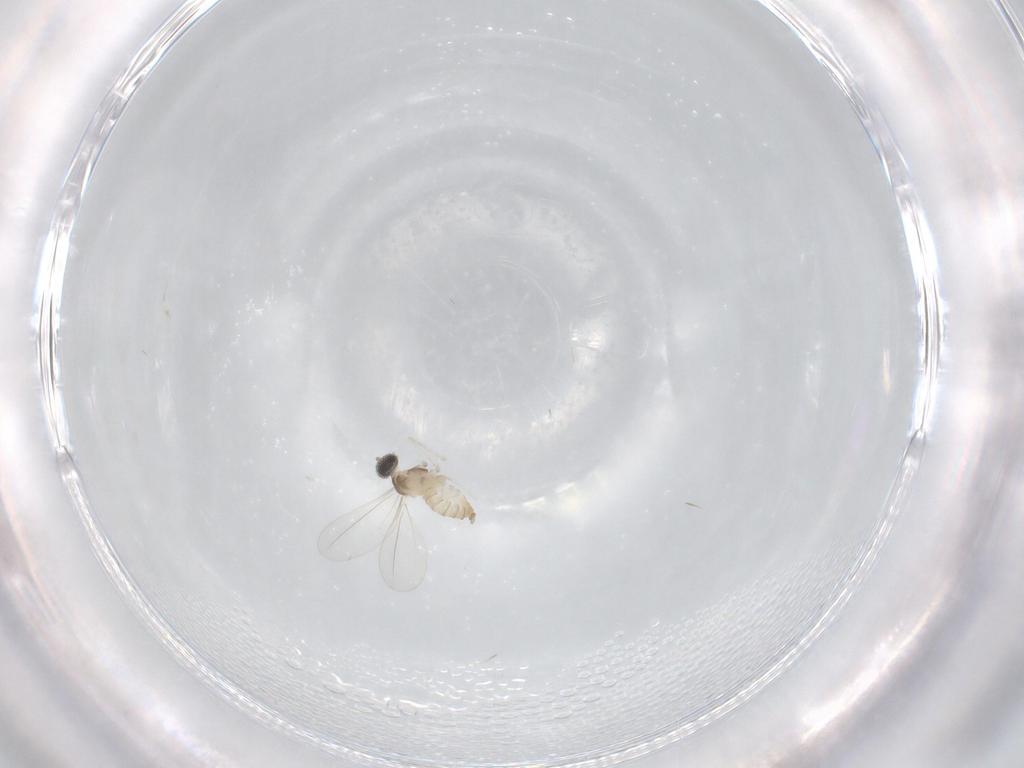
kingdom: Animalia
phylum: Arthropoda
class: Insecta
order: Diptera
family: Cecidomyiidae
